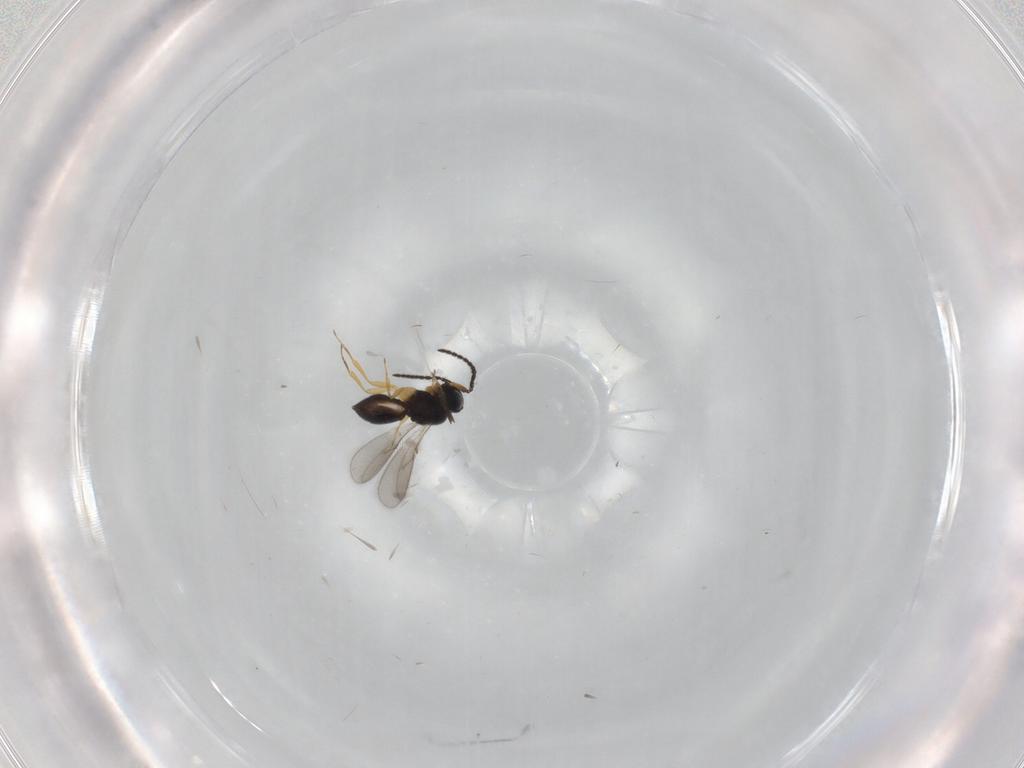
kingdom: Animalia
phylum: Arthropoda
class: Insecta
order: Hymenoptera
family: Scelionidae
